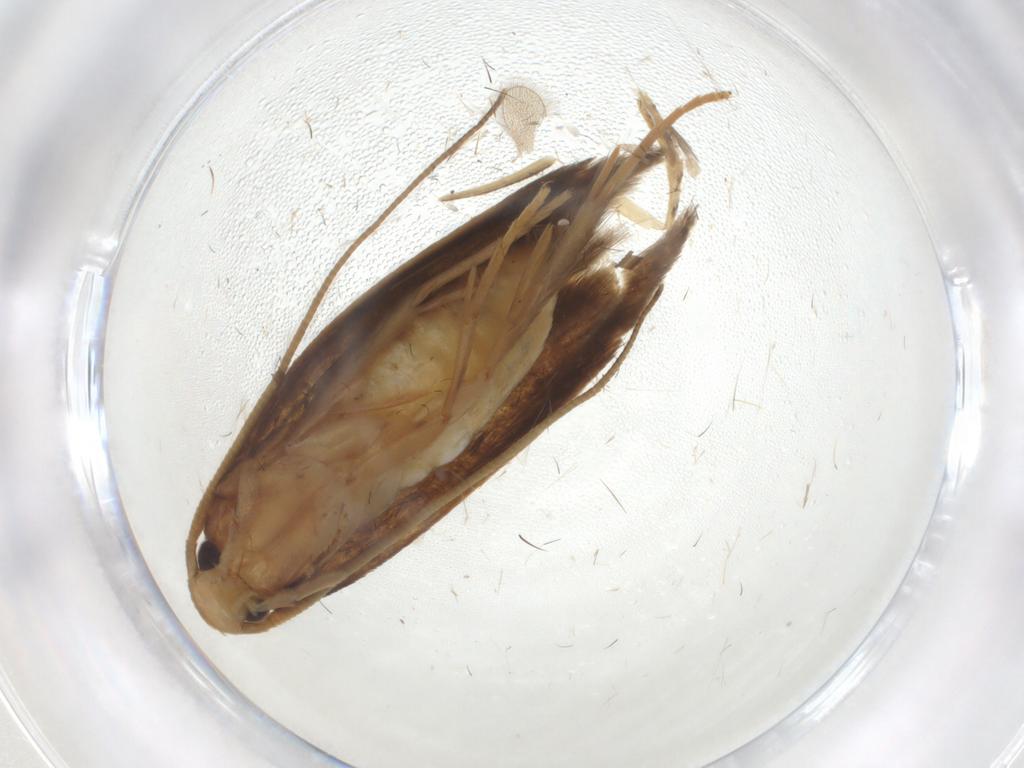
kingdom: Animalia
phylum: Arthropoda
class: Insecta
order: Lepidoptera
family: Tineidae
